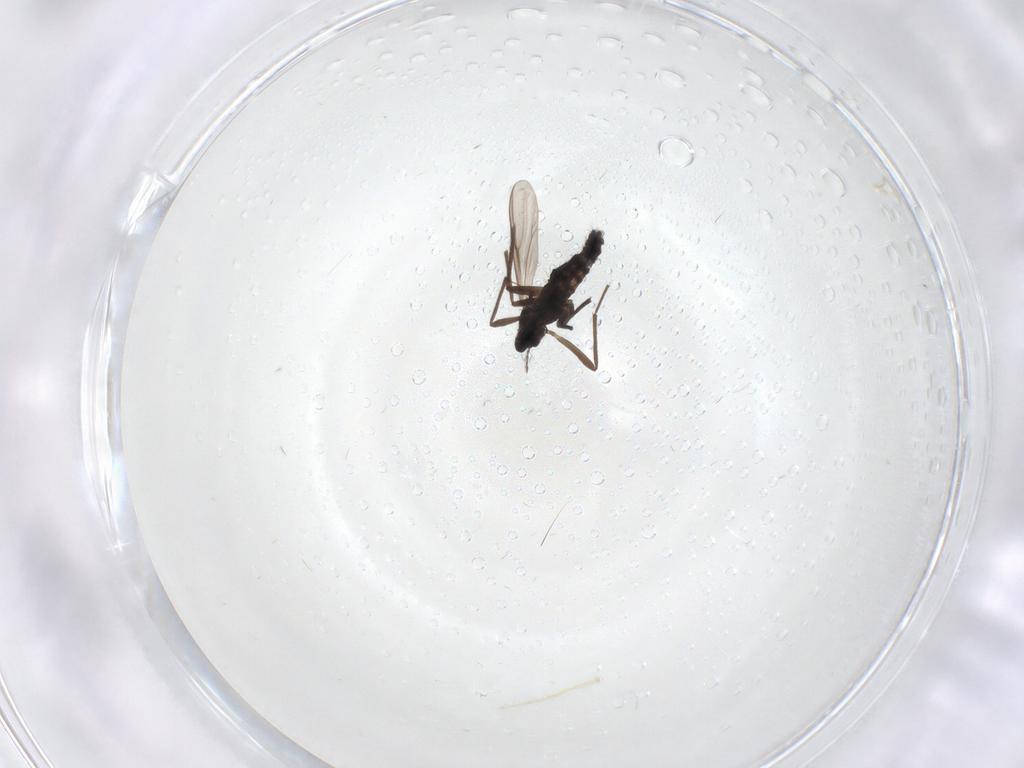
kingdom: Animalia
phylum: Arthropoda
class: Insecta
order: Diptera
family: Chironomidae
